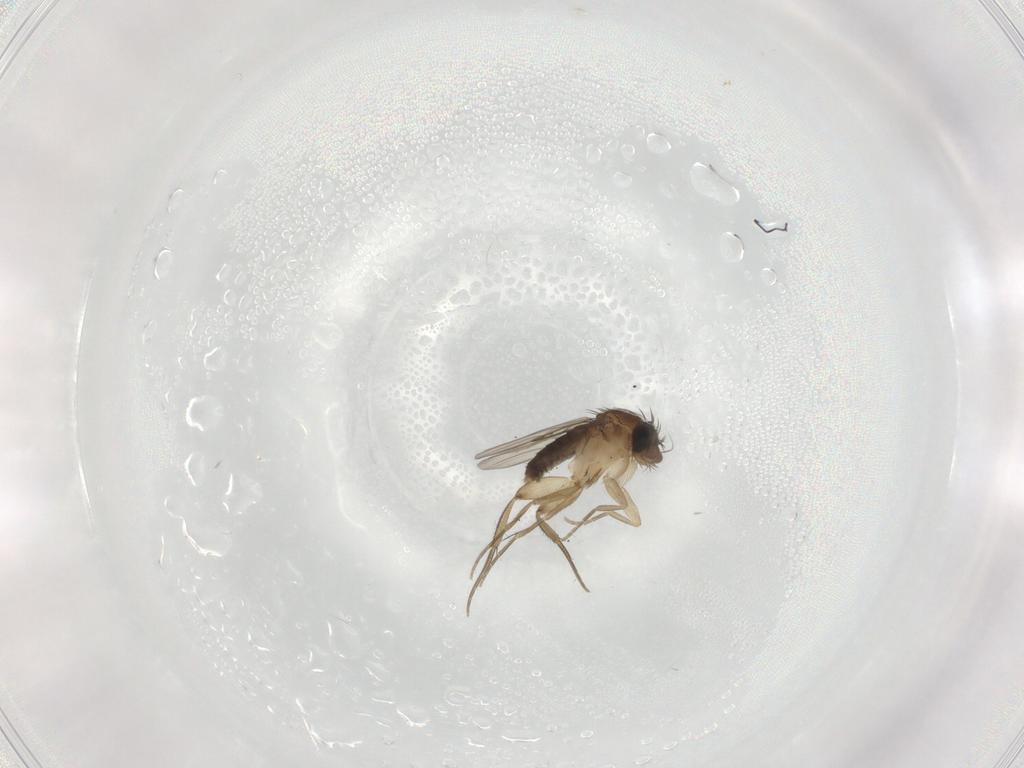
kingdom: Animalia
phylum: Arthropoda
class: Insecta
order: Diptera
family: Phoridae
